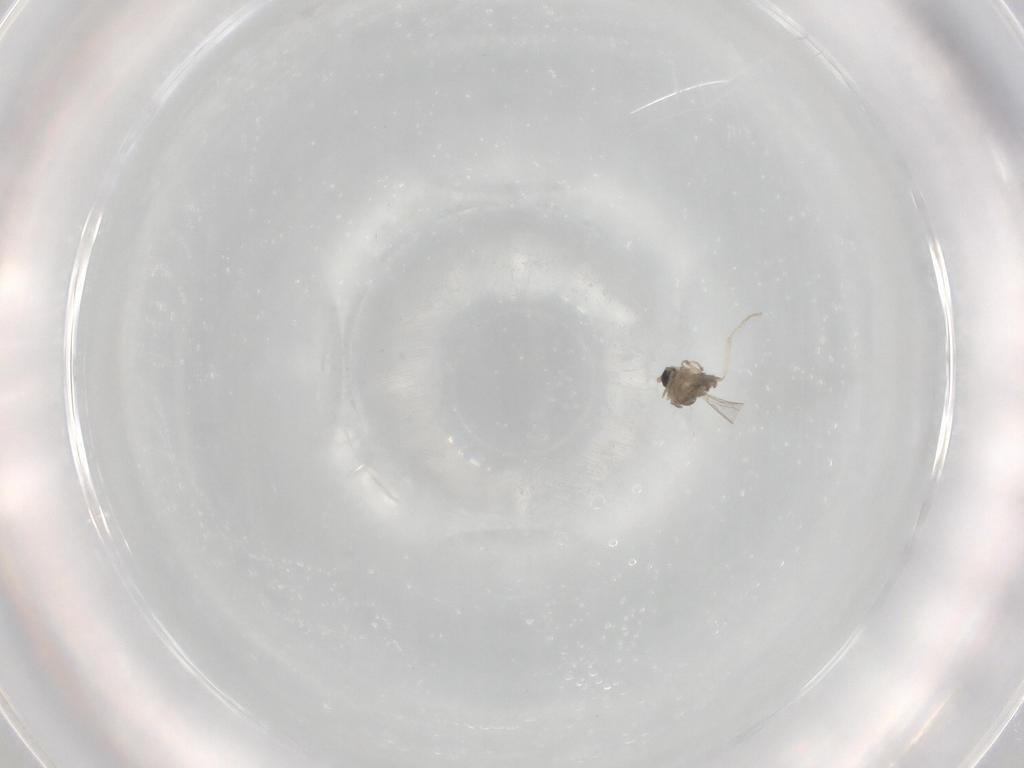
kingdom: Animalia
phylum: Arthropoda
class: Insecta
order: Diptera
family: Cecidomyiidae
